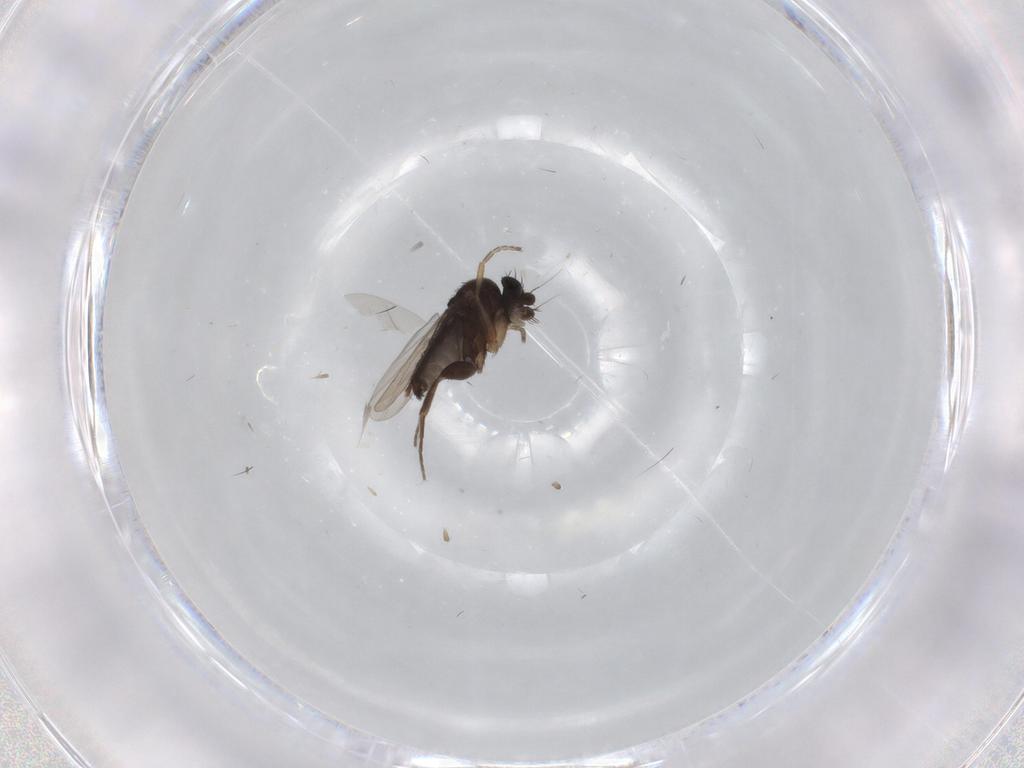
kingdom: Animalia
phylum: Arthropoda
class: Insecta
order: Diptera
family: Phoridae
